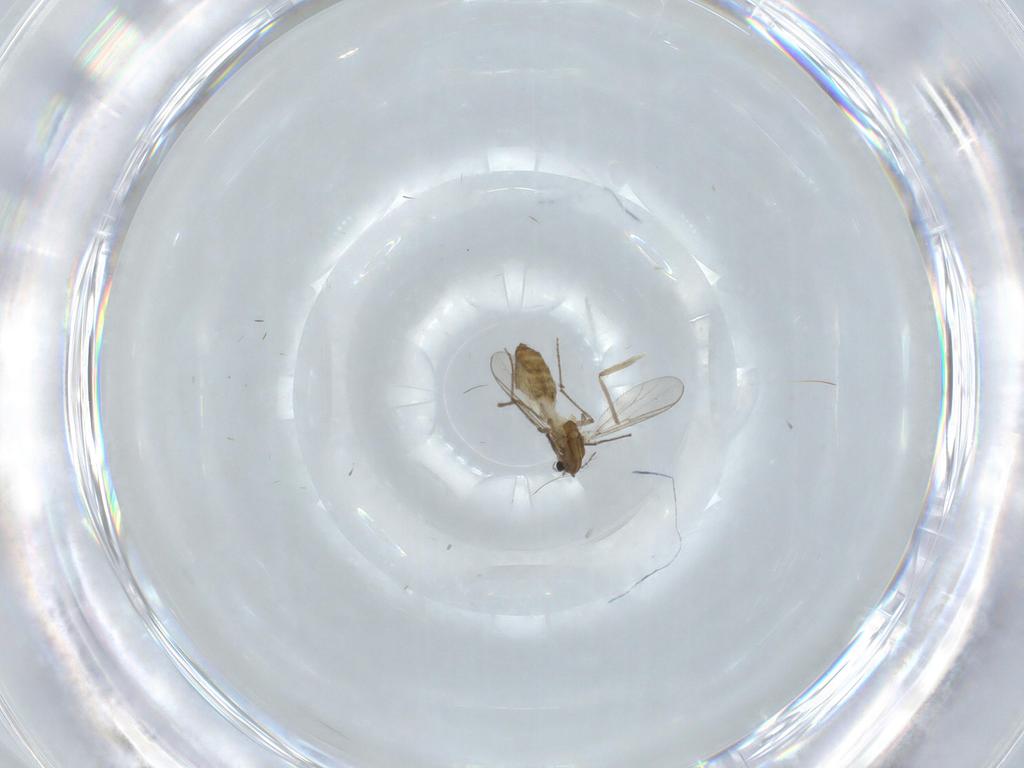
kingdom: Animalia
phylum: Arthropoda
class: Insecta
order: Diptera
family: Chironomidae
